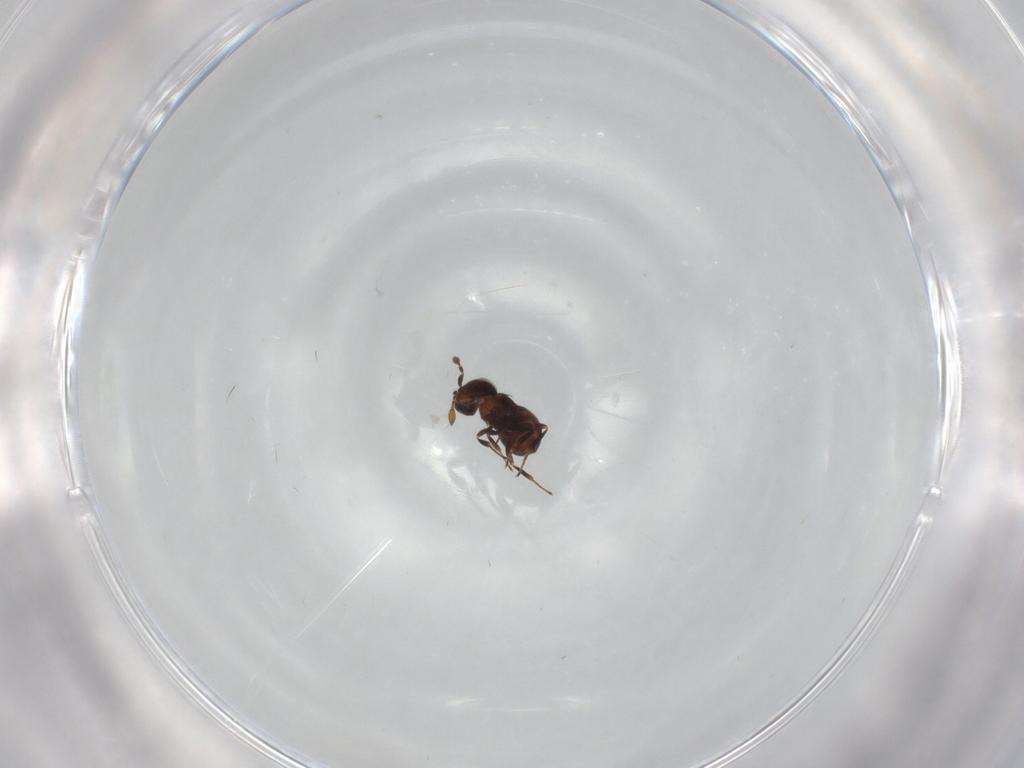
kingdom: Animalia
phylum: Arthropoda
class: Insecta
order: Hymenoptera
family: Scelionidae
